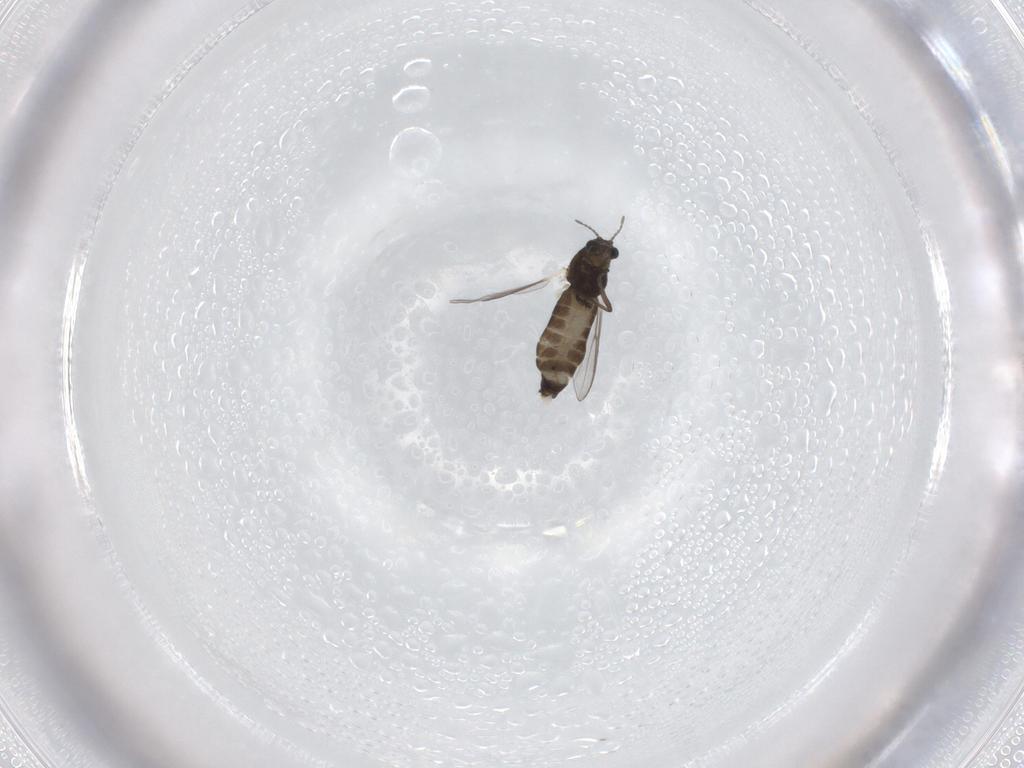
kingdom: Animalia
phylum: Arthropoda
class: Insecta
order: Diptera
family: Chironomidae
